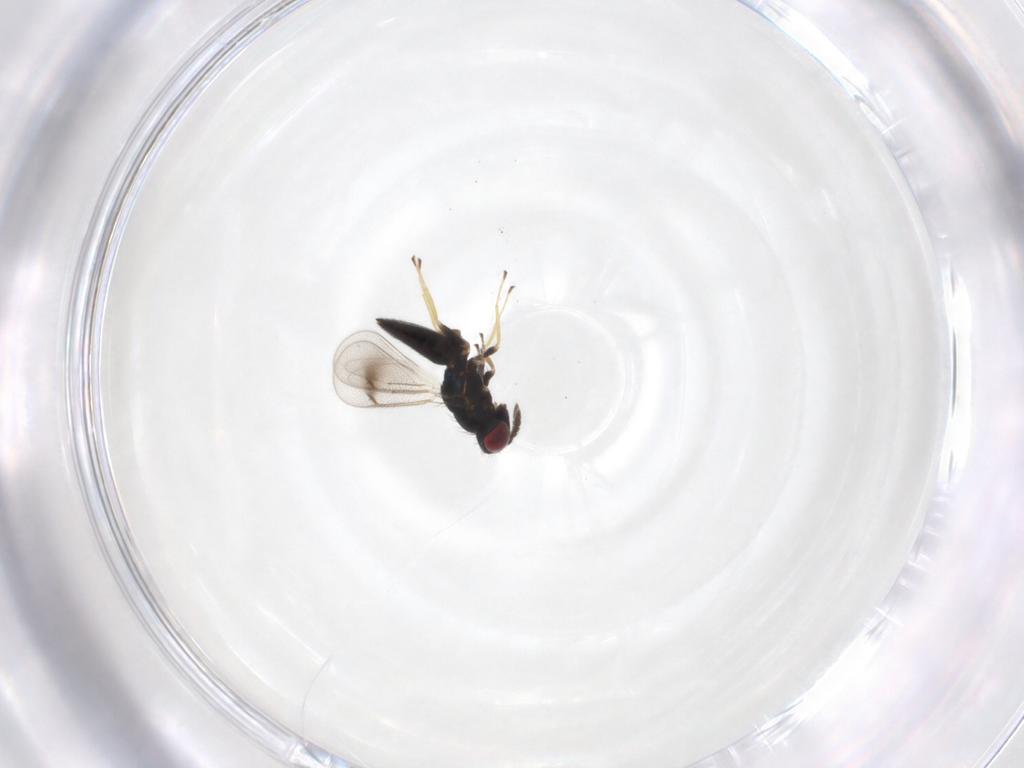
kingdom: Animalia
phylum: Arthropoda
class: Insecta
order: Hymenoptera
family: Eulophidae
